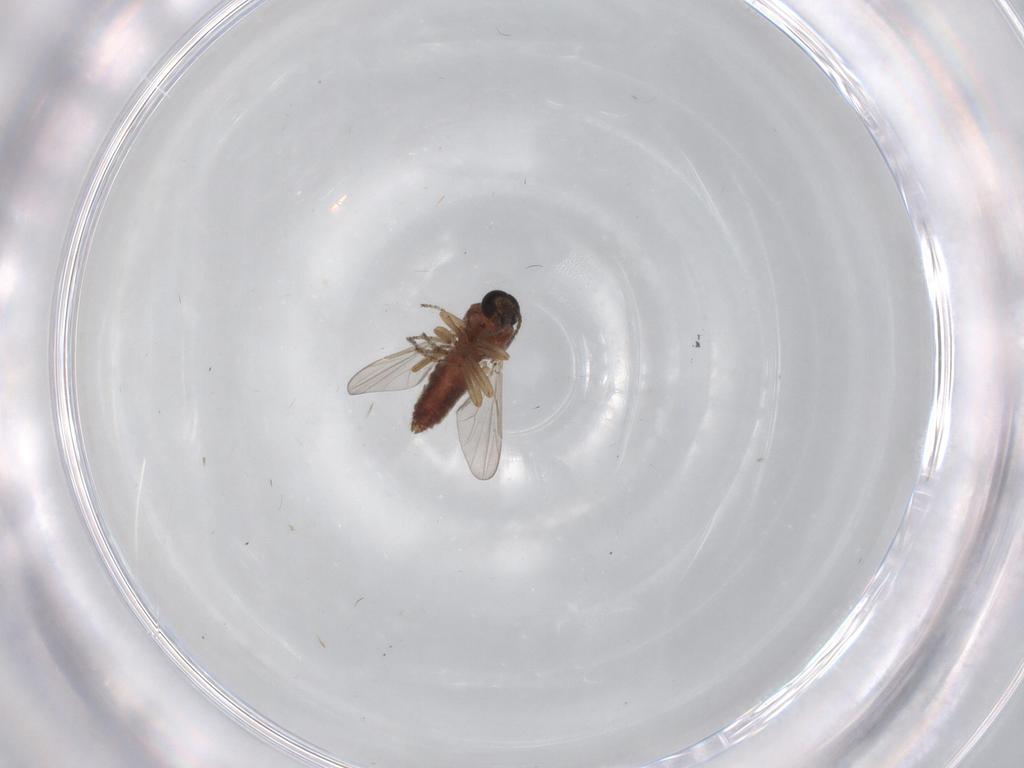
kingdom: Animalia
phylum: Arthropoda
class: Insecta
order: Diptera
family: Ceratopogonidae
